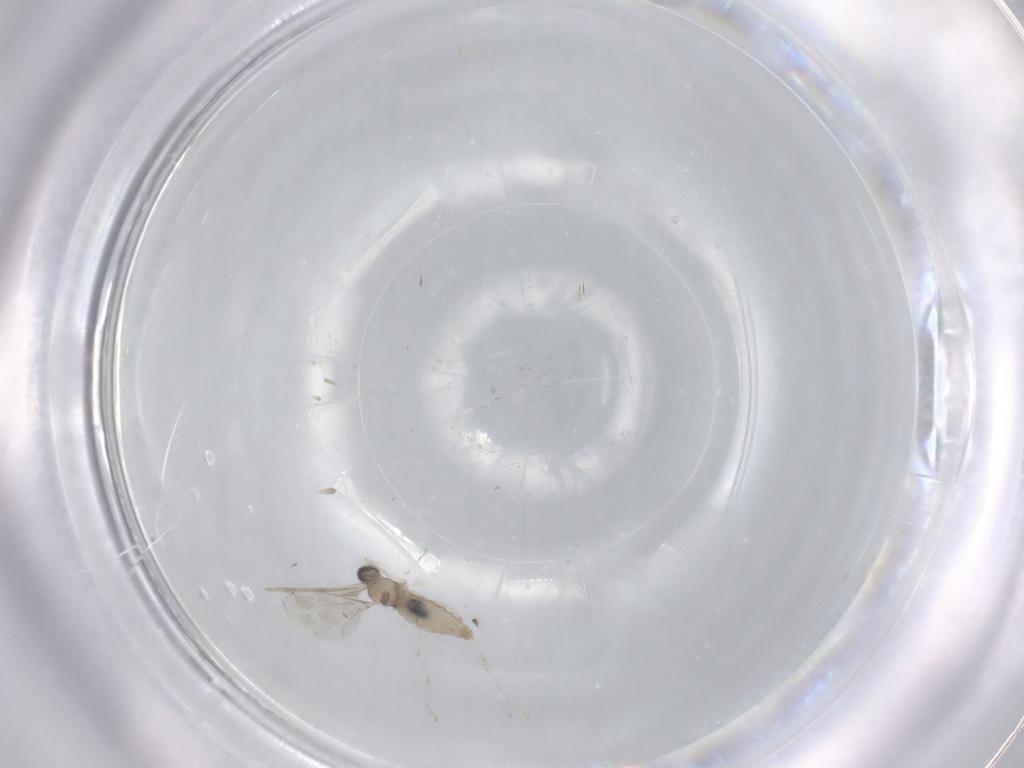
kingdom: Animalia
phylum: Arthropoda
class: Insecta
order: Diptera
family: Cecidomyiidae
